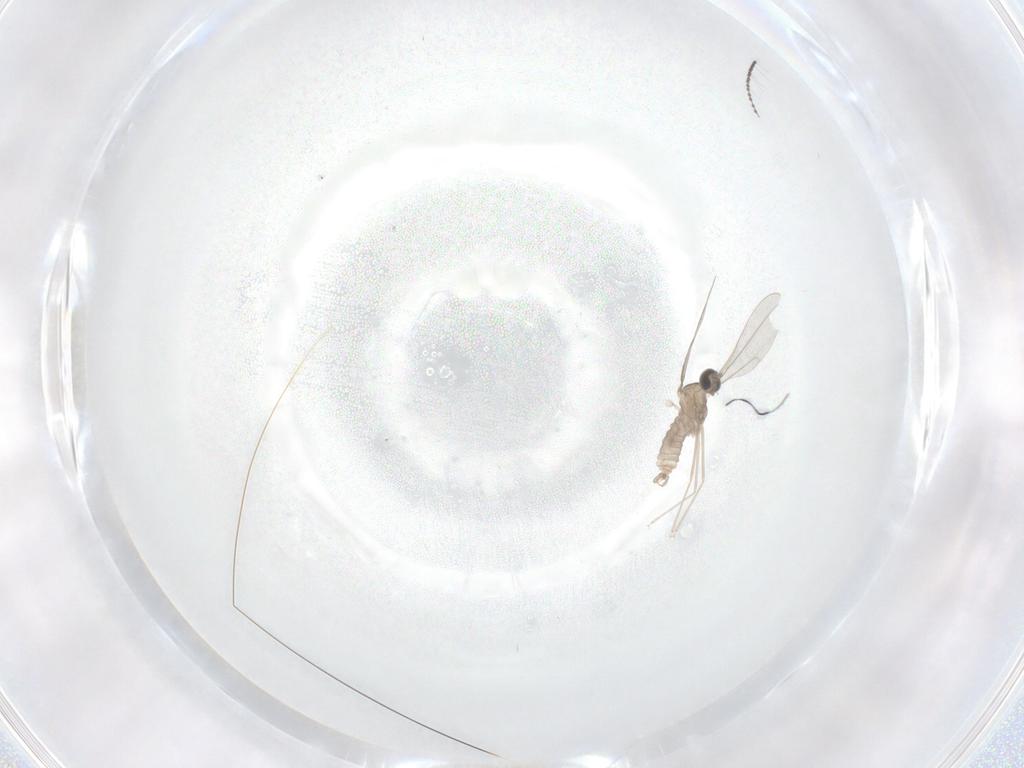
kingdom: Animalia
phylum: Arthropoda
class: Insecta
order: Diptera
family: Cecidomyiidae
